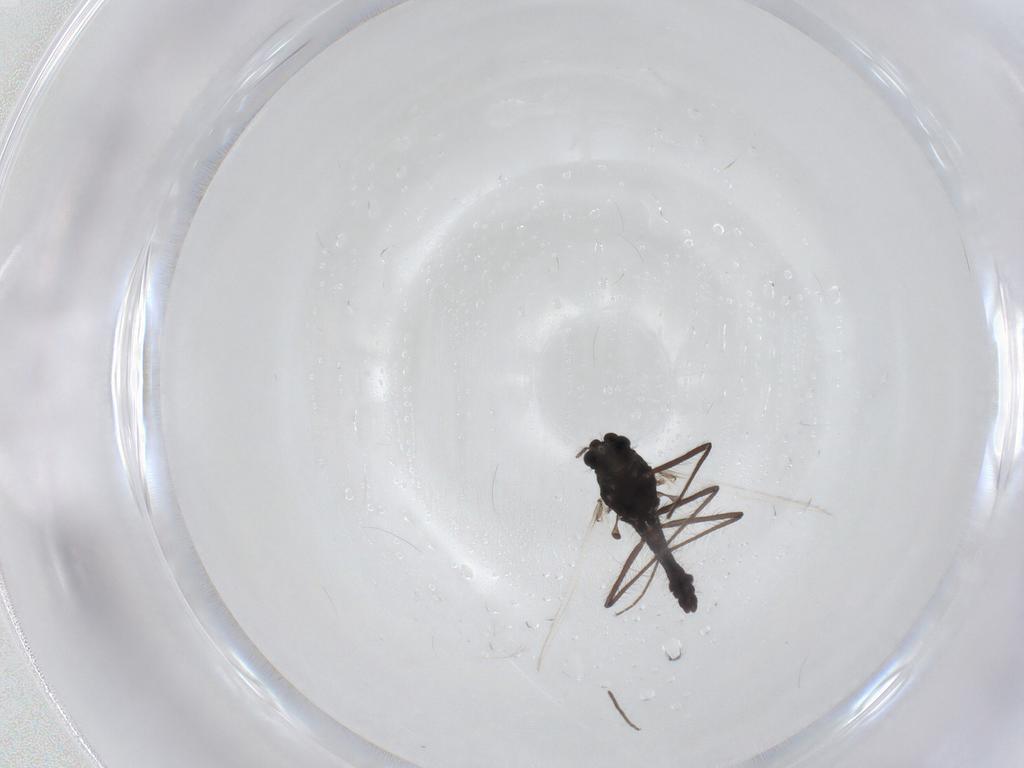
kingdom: Animalia
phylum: Arthropoda
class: Insecta
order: Diptera
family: Chironomidae
